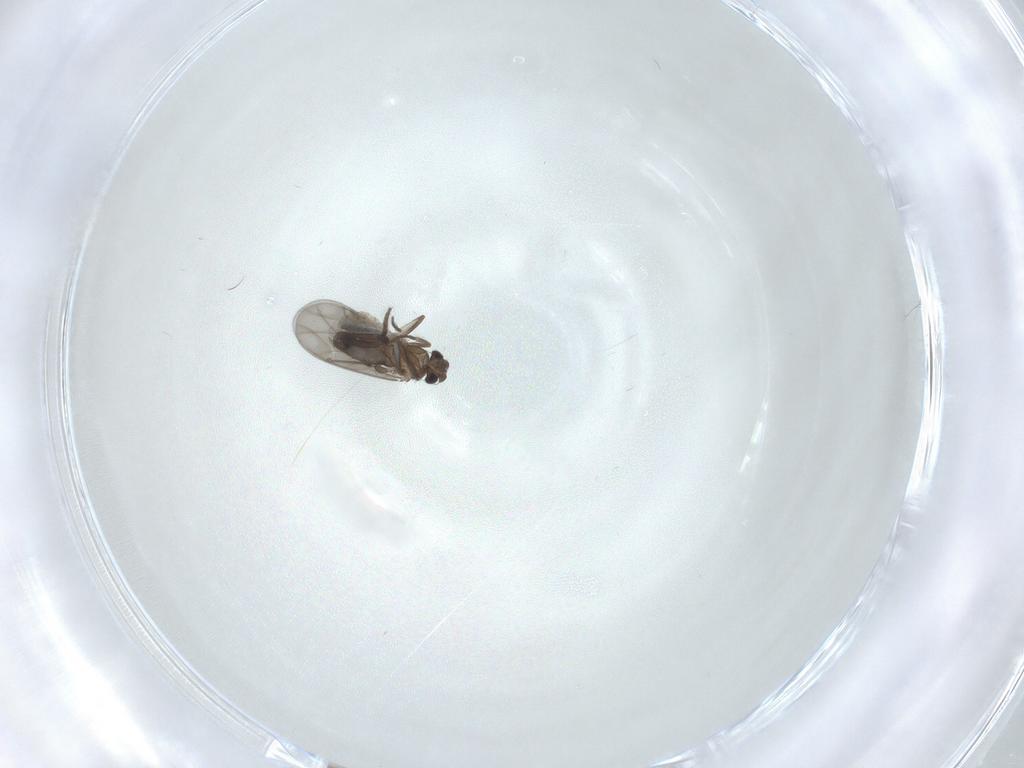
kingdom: Animalia
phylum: Arthropoda
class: Insecta
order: Diptera
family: Phoridae
